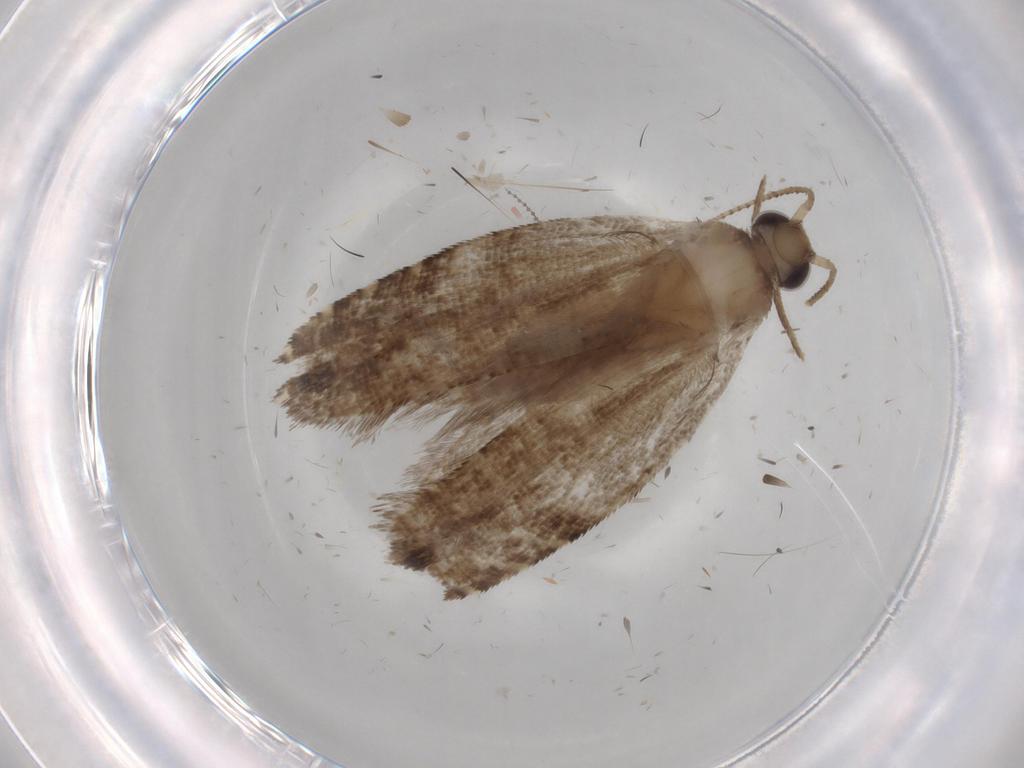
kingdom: Animalia
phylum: Arthropoda
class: Insecta
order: Lepidoptera
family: Glyphipterigidae
